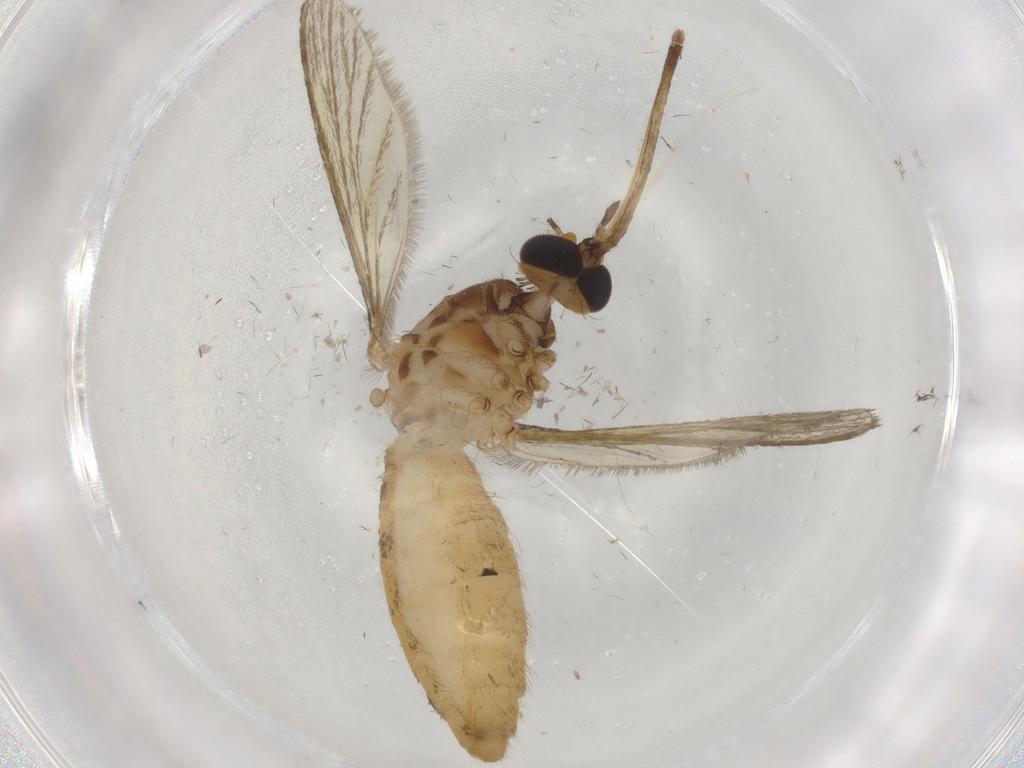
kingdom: Animalia
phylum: Arthropoda
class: Insecta
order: Diptera
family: Culicidae
